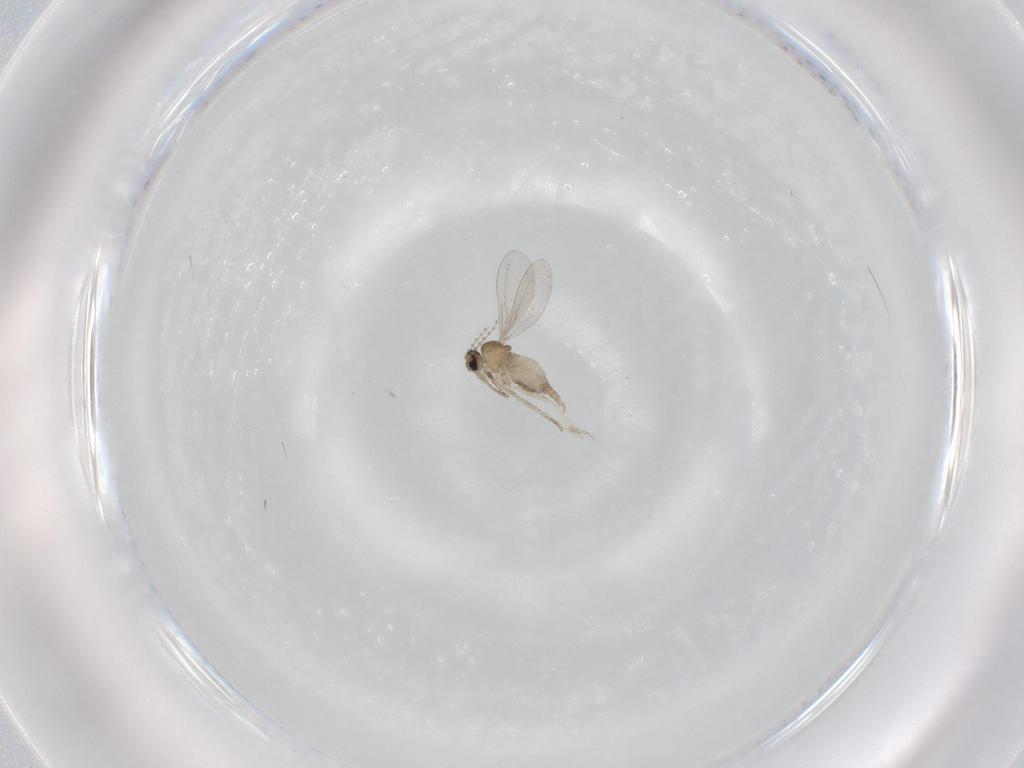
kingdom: Animalia
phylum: Arthropoda
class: Insecta
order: Diptera
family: Cecidomyiidae
